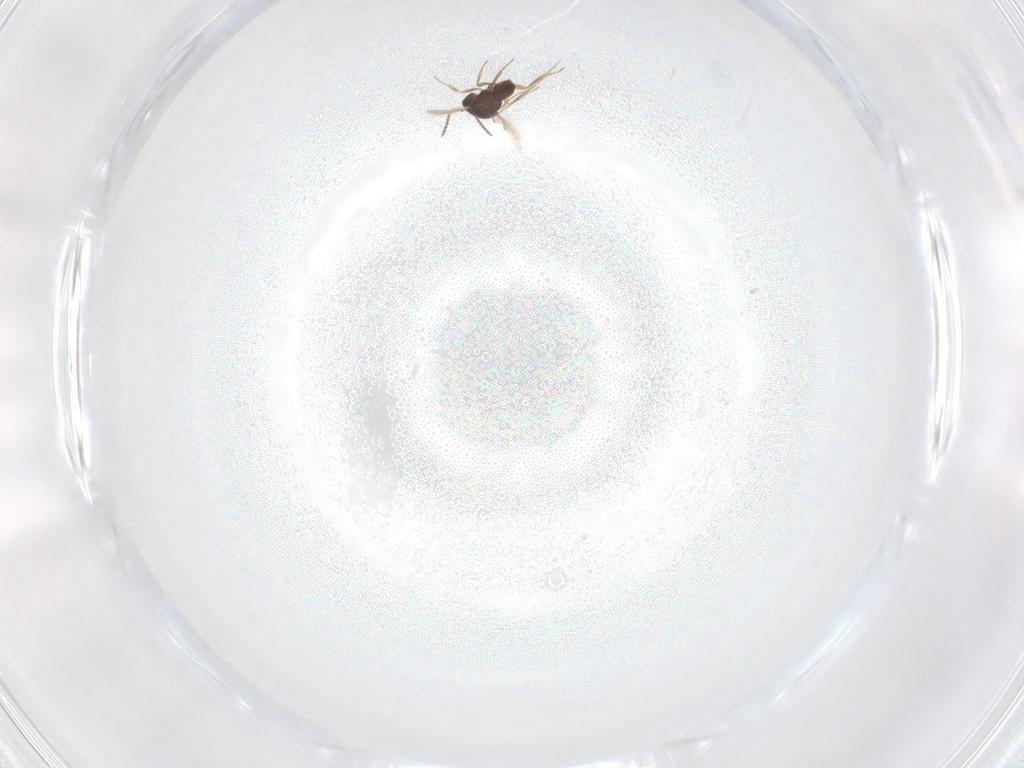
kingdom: Animalia
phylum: Arthropoda
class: Insecta
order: Hymenoptera
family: Scelionidae
